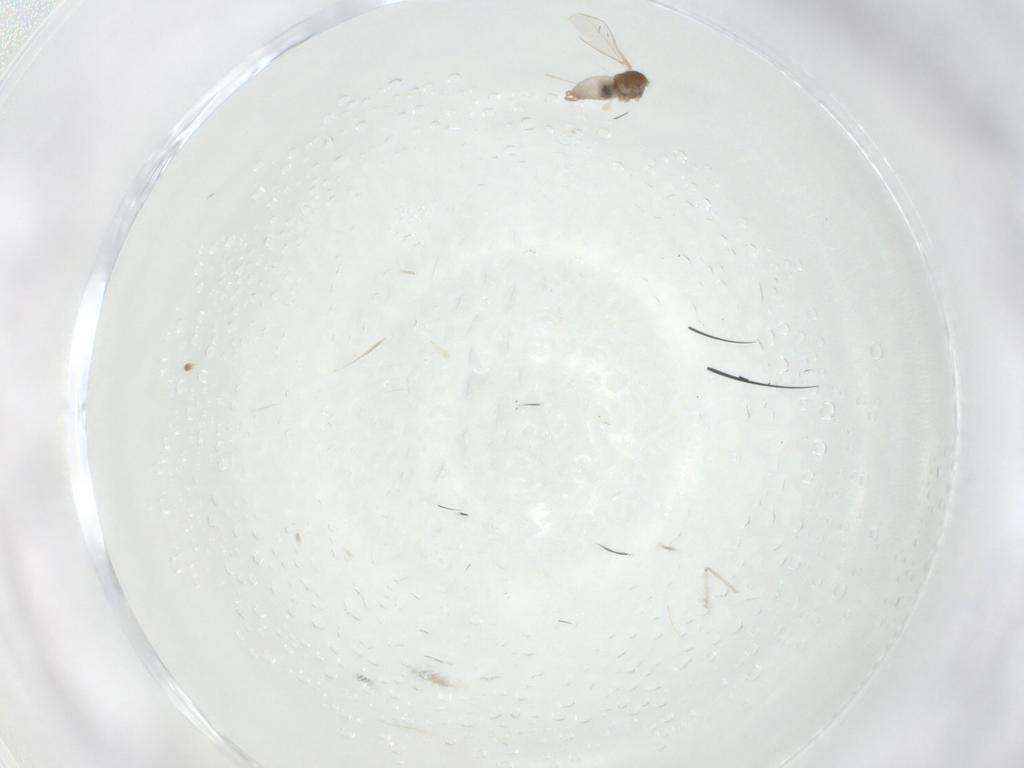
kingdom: Animalia
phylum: Arthropoda
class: Insecta
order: Diptera
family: Cecidomyiidae
